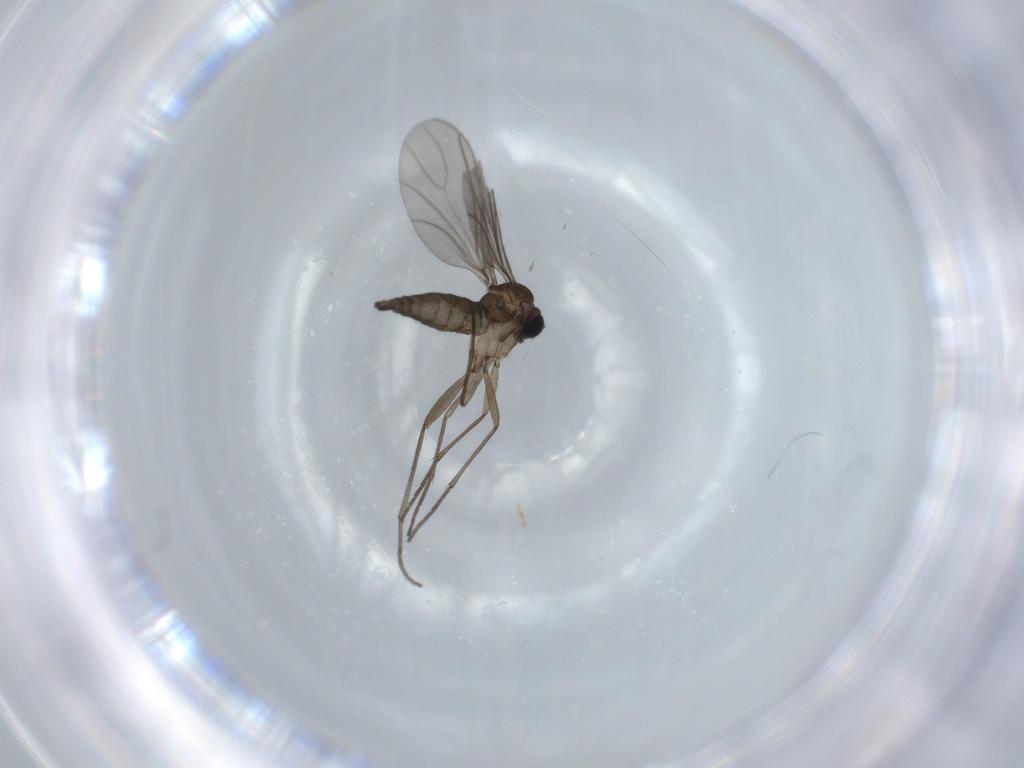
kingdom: Animalia
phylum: Arthropoda
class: Insecta
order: Diptera
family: Sciaridae
